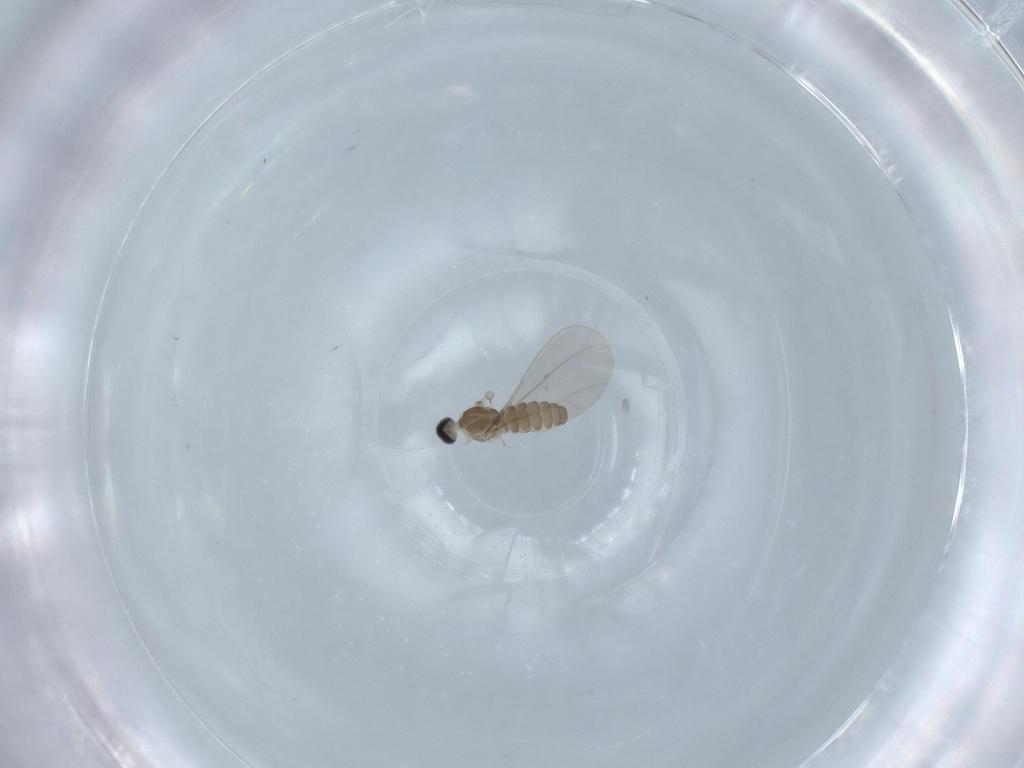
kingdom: Animalia
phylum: Arthropoda
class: Insecta
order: Diptera
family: Cecidomyiidae
